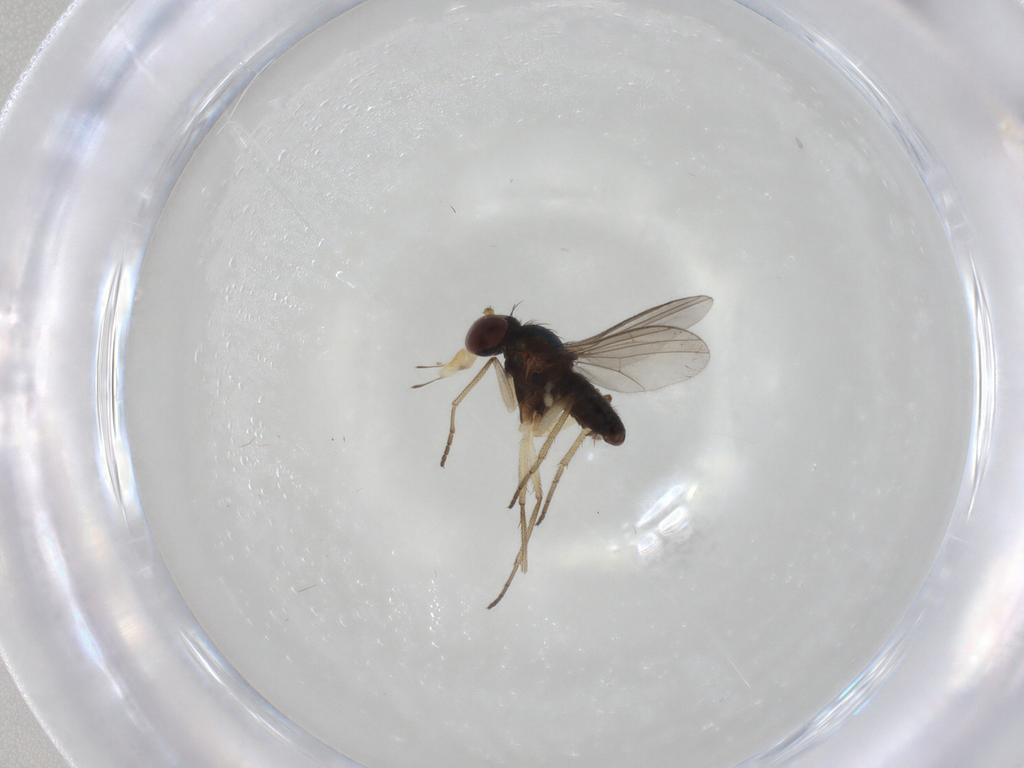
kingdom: Animalia
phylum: Arthropoda
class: Insecta
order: Diptera
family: Dolichopodidae
